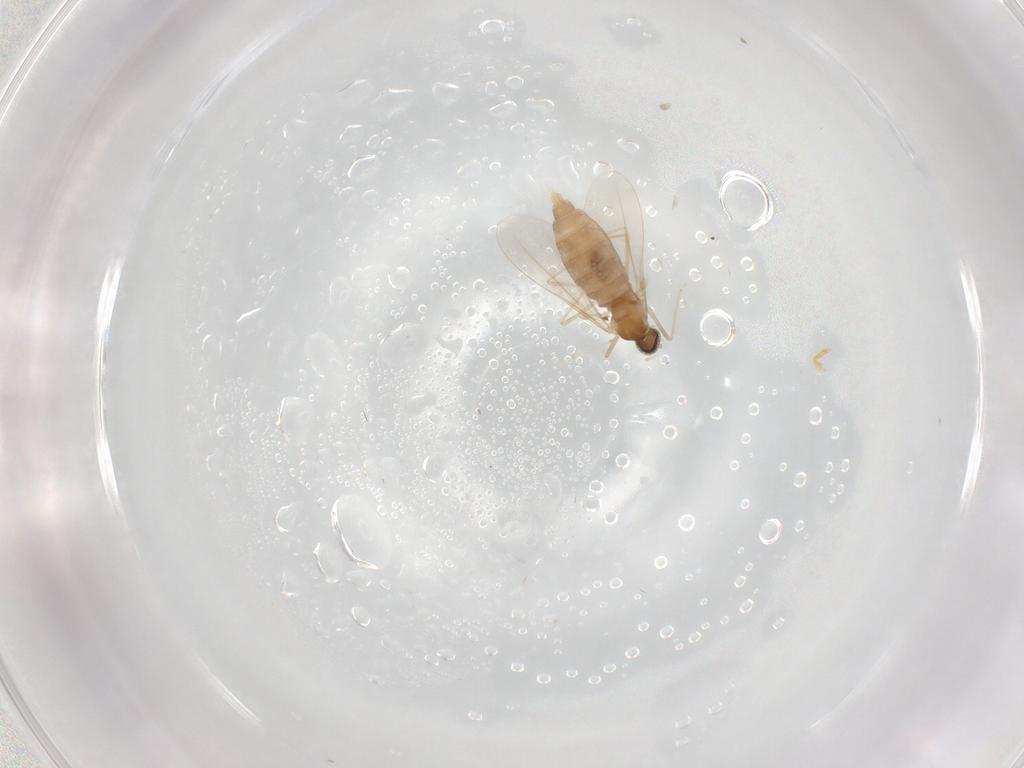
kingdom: Animalia
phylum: Arthropoda
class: Insecta
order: Diptera
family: Cecidomyiidae
